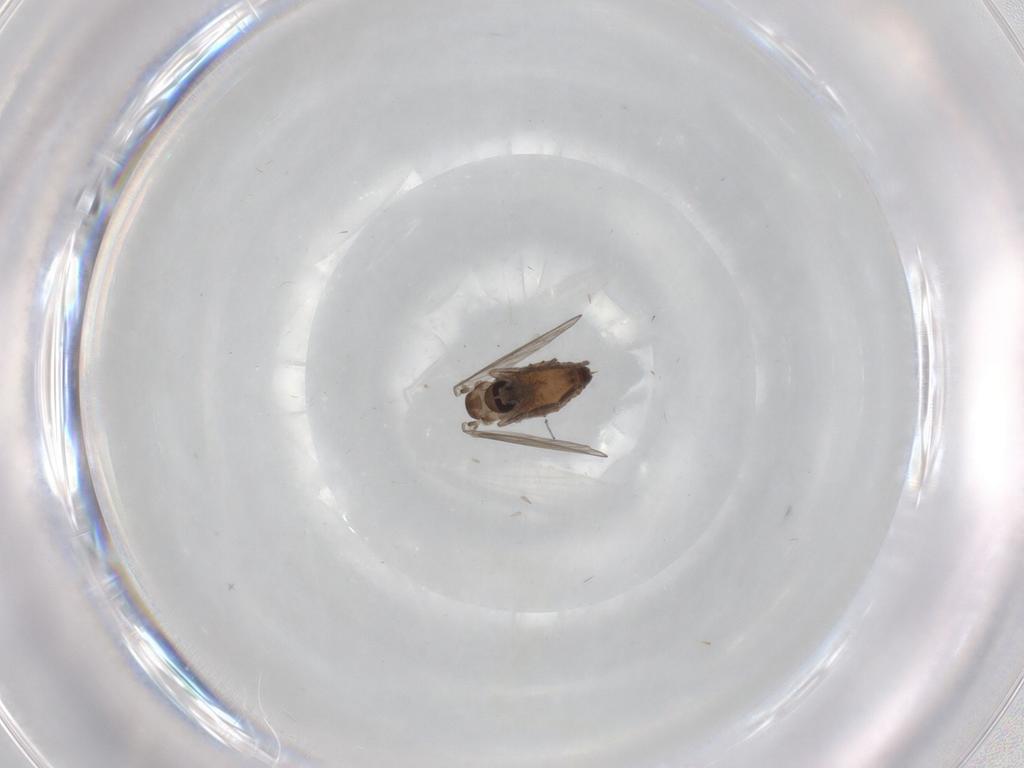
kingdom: Animalia
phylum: Arthropoda
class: Insecta
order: Diptera
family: Psychodidae
